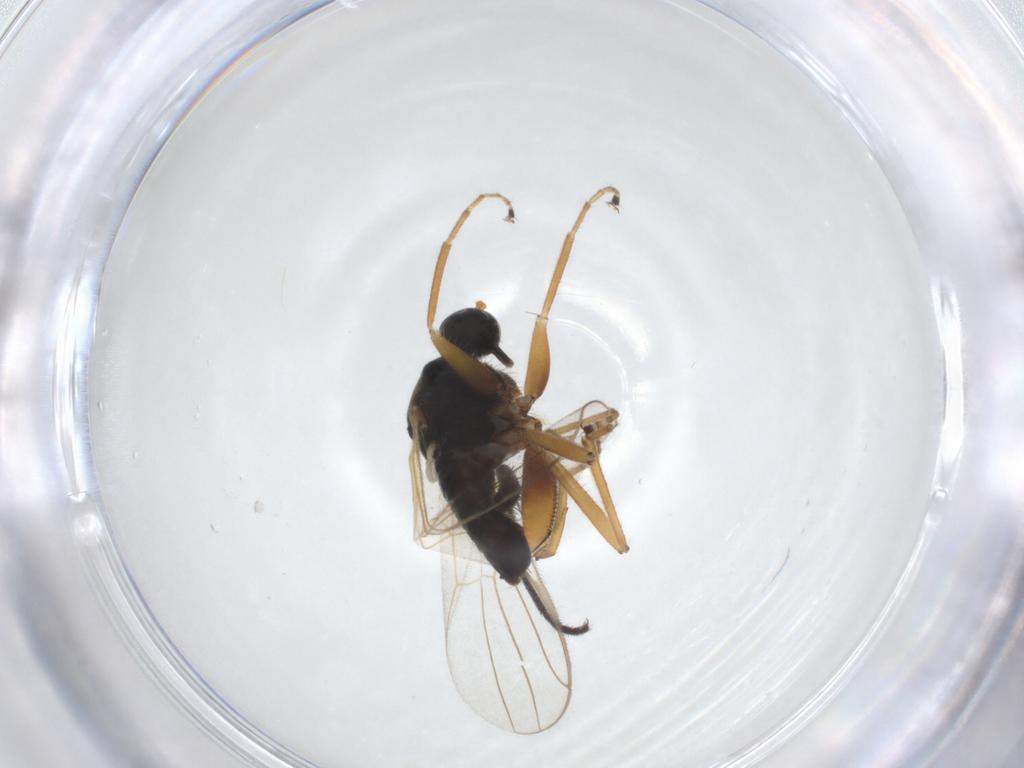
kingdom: Animalia
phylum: Arthropoda
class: Insecta
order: Diptera
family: Hybotidae
